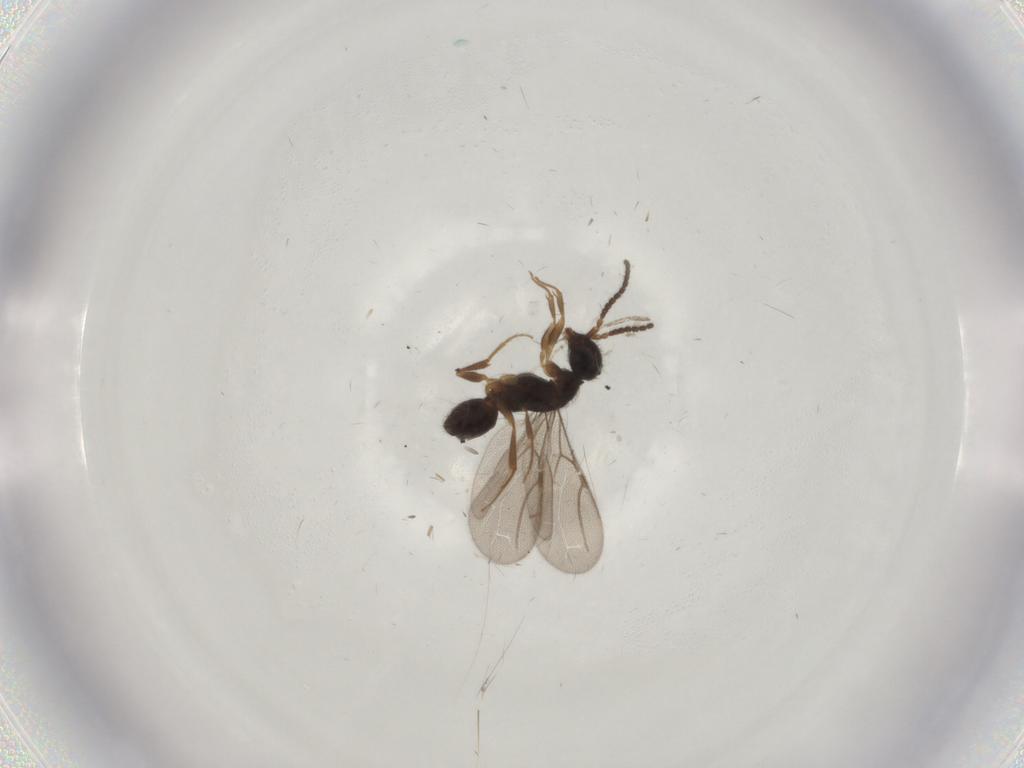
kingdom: Animalia
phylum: Arthropoda
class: Insecta
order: Hymenoptera
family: Bethylidae
